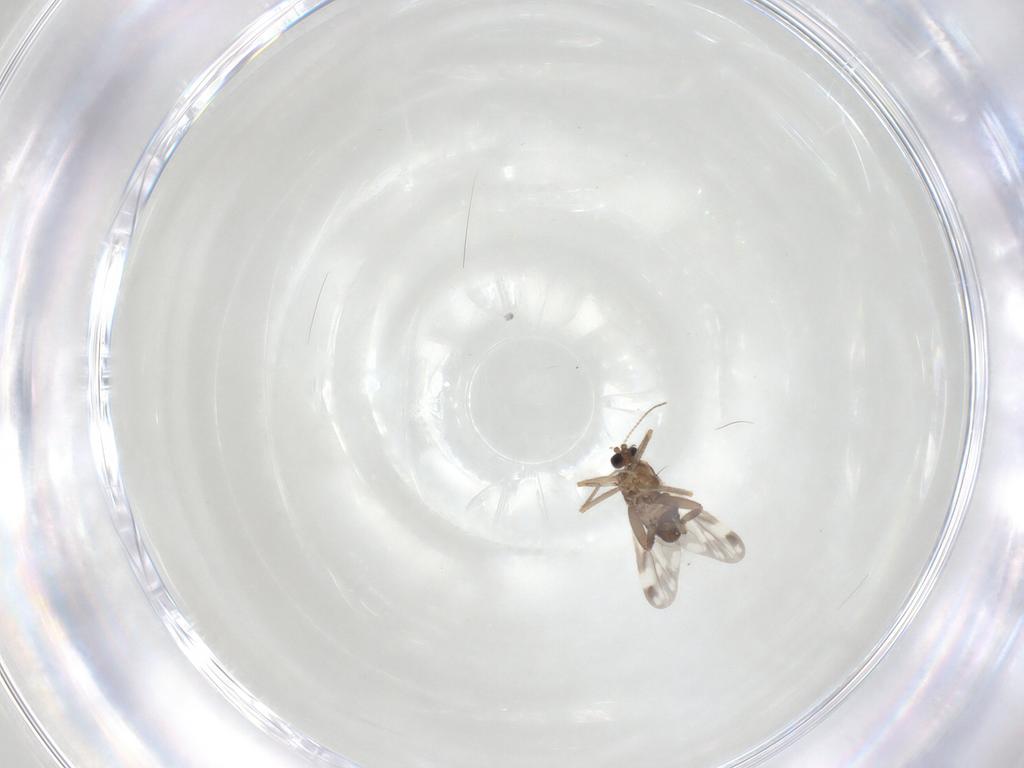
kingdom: Animalia
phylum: Arthropoda
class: Insecta
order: Diptera
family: Ceratopogonidae
